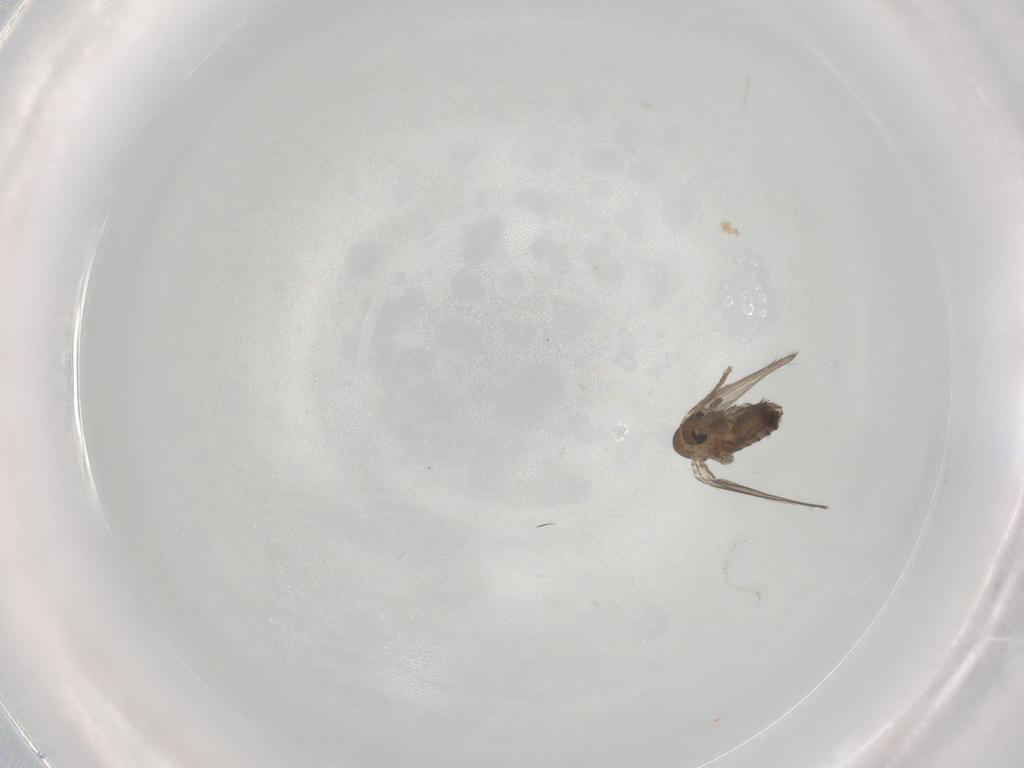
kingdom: Animalia
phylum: Arthropoda
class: Insecta
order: Diptera
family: Psychodidae
